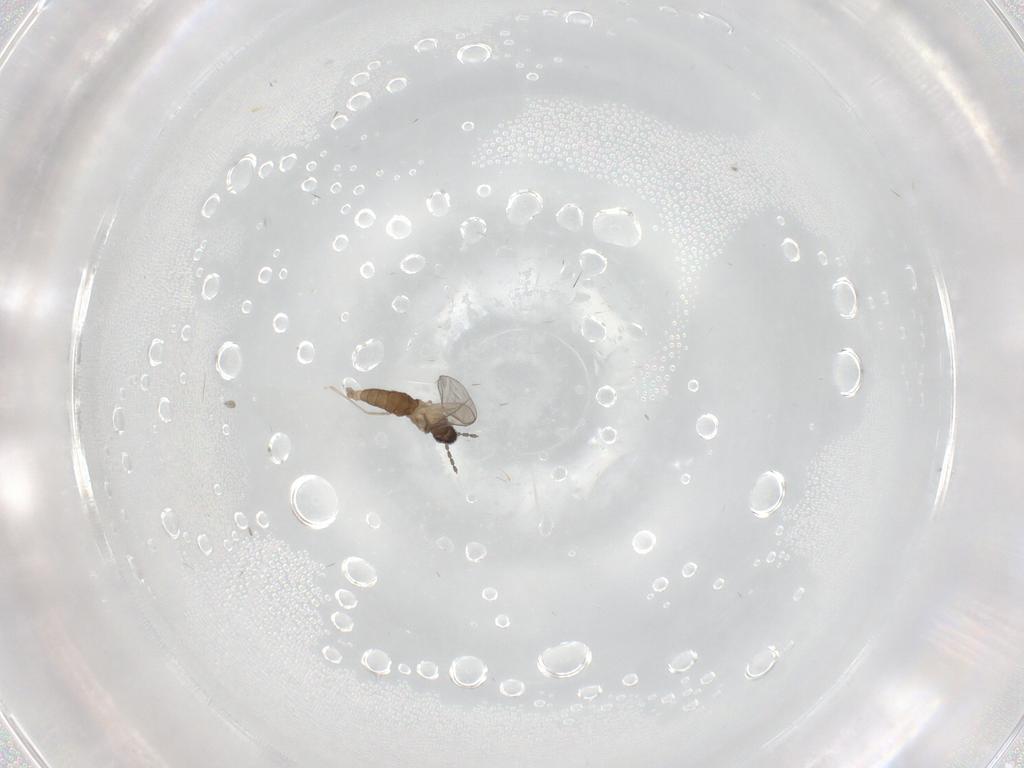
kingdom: Animalia
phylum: Arthropoda
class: Insecta
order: Diptera
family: Cecidomyiidae
